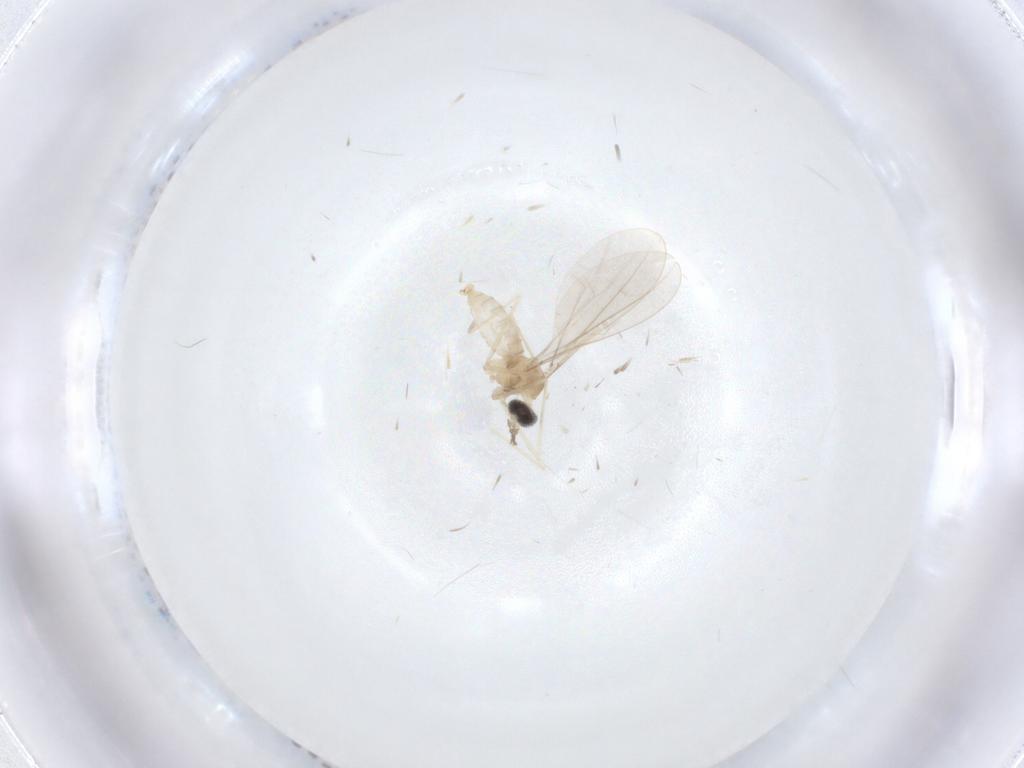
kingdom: Animalia
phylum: Arthropoda
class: Insecta
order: Diptera
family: Cecidomyiidae
